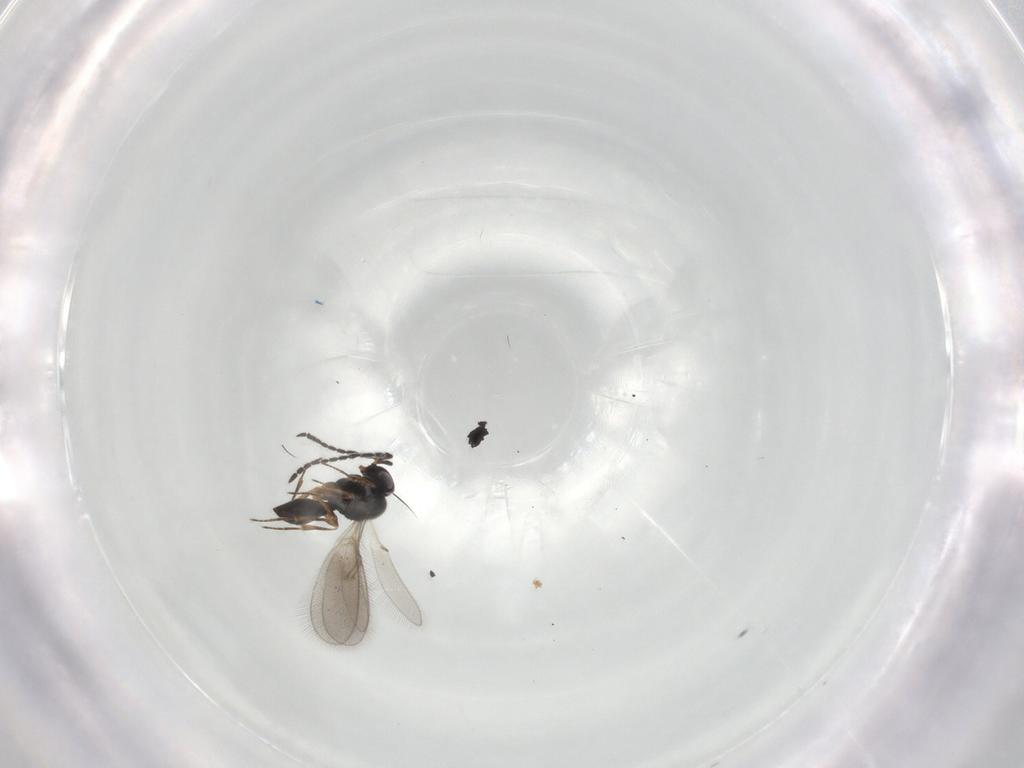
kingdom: Animalia
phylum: Arthropoda
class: Insecta
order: Hymenoptera
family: Scelionidae
